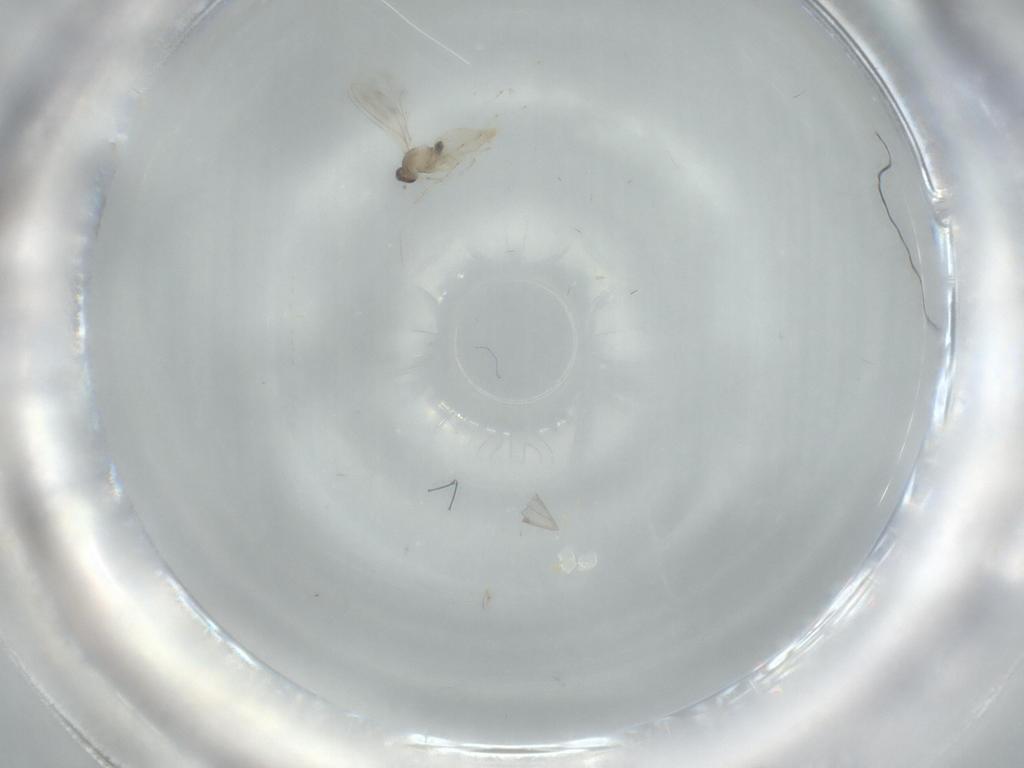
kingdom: Animalia
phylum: Arthropoda
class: Insecta
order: Diptera
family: Cecidomyiidae
